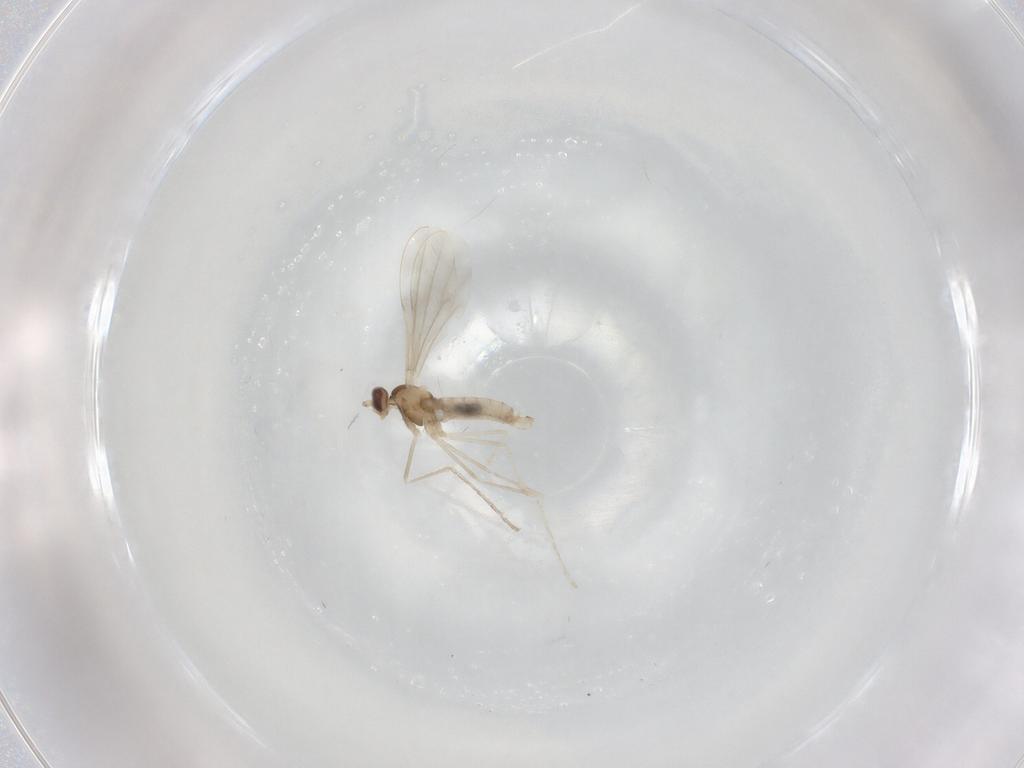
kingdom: Animalia
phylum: Arthropoda
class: Insecta
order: Diptera
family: Cecidomyiidae
